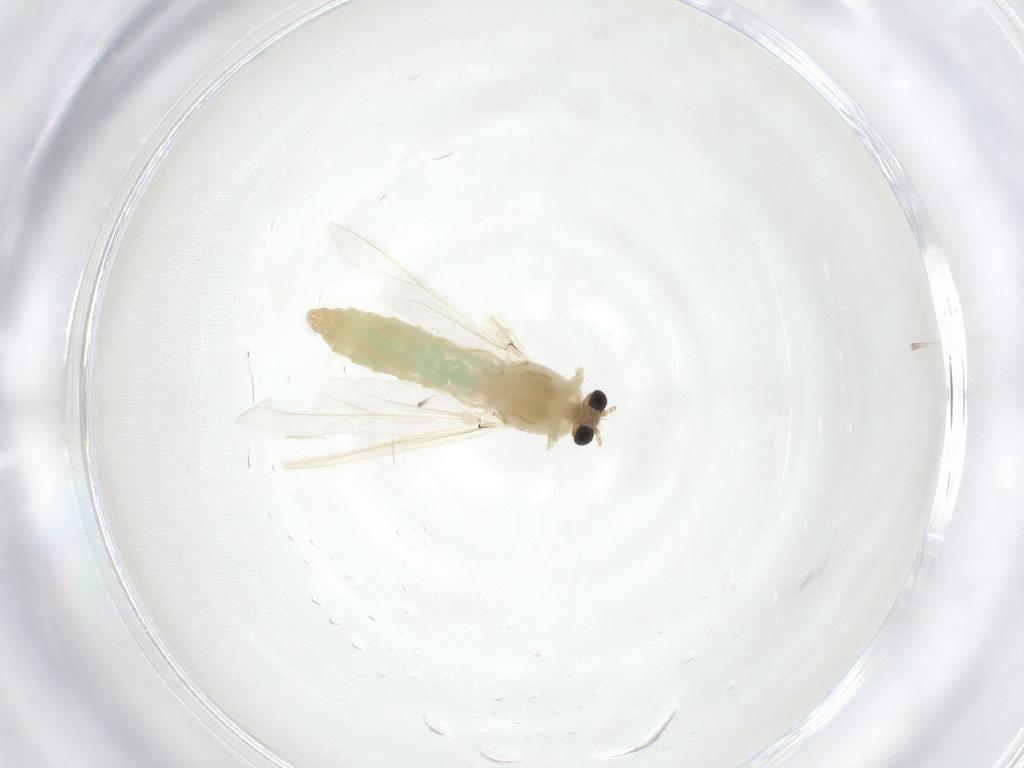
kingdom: Animalia
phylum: Arthropoda
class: Insecta
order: Diptera
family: Chironomidae
